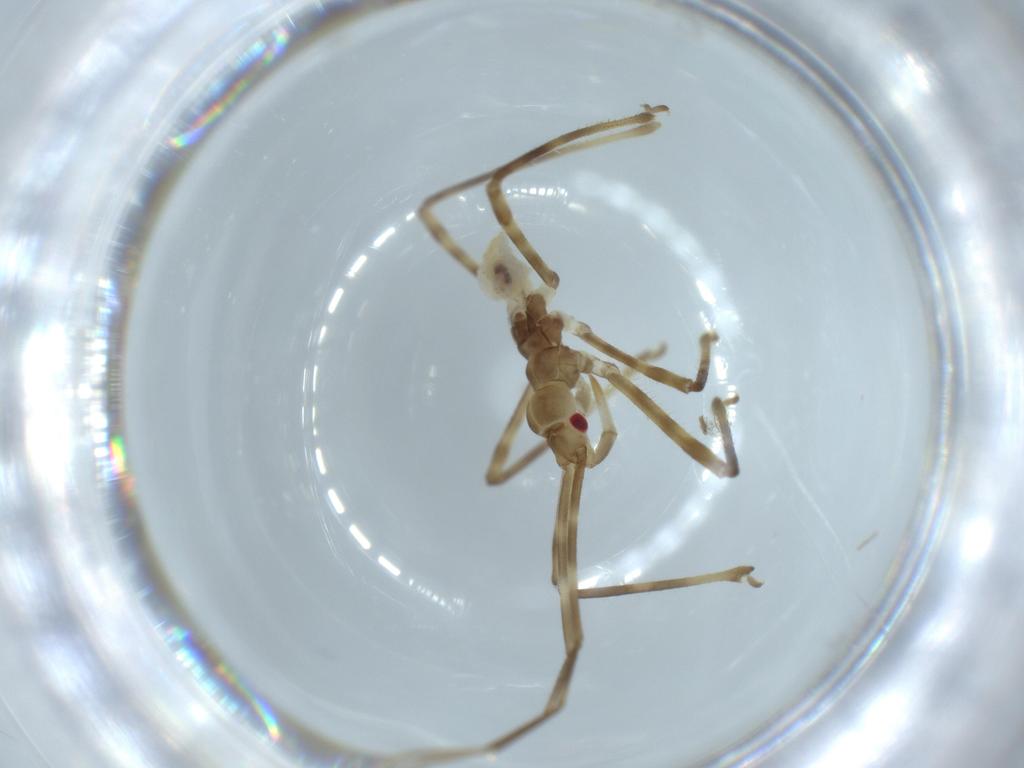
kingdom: Animalia
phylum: Arthropoda
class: Insecta
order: Hemiptera
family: Reduviidae
